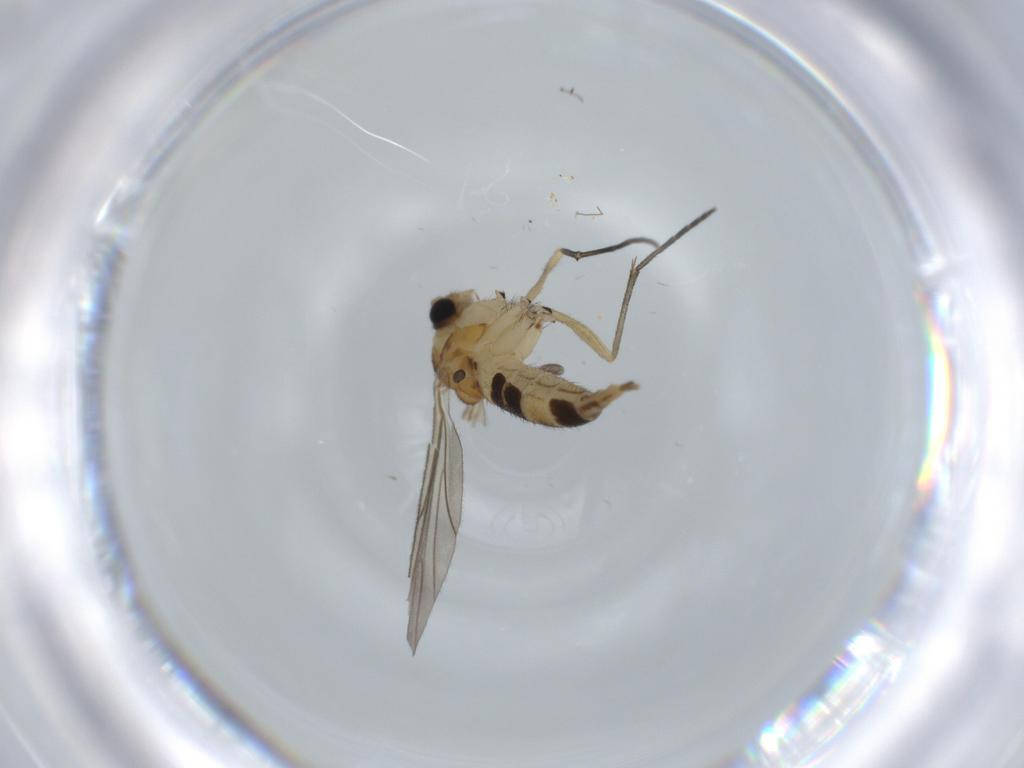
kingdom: Animalia
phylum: Arthropoda
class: Insecta
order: Diptera
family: Sciaridae
